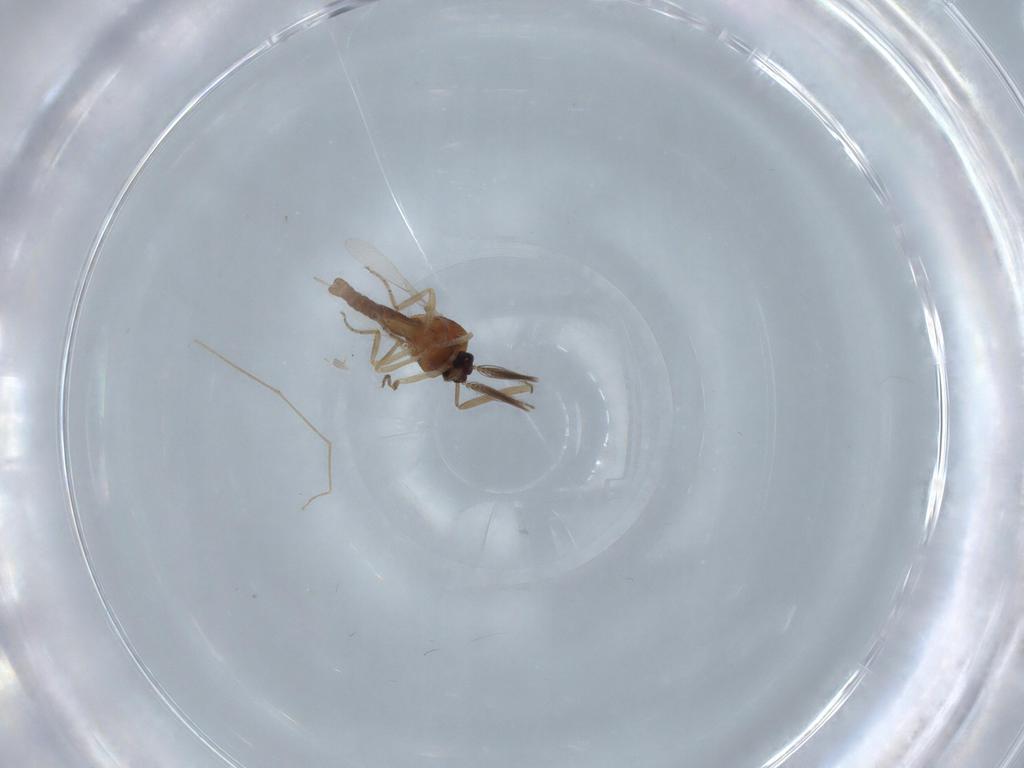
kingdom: Animalia
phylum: Arthropoda
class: Insecta
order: Diptera
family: Ceratopogonidae
